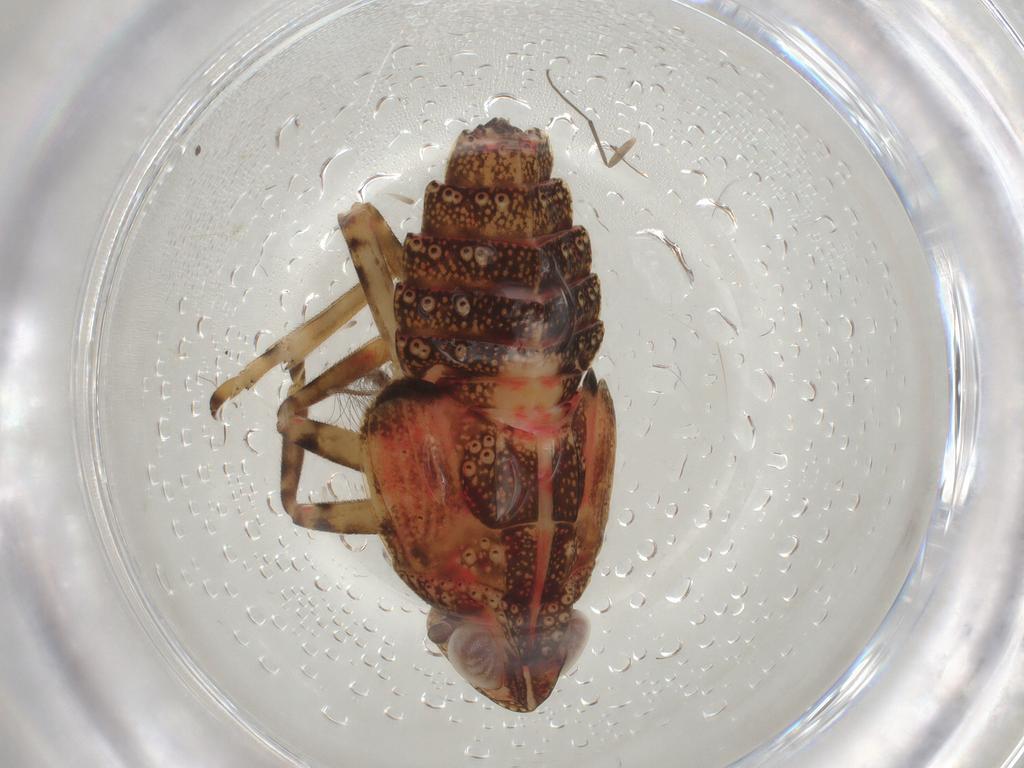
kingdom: Animalia
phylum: Arthropoda
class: Insecta
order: Hemiptera
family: Tropiduchidae
